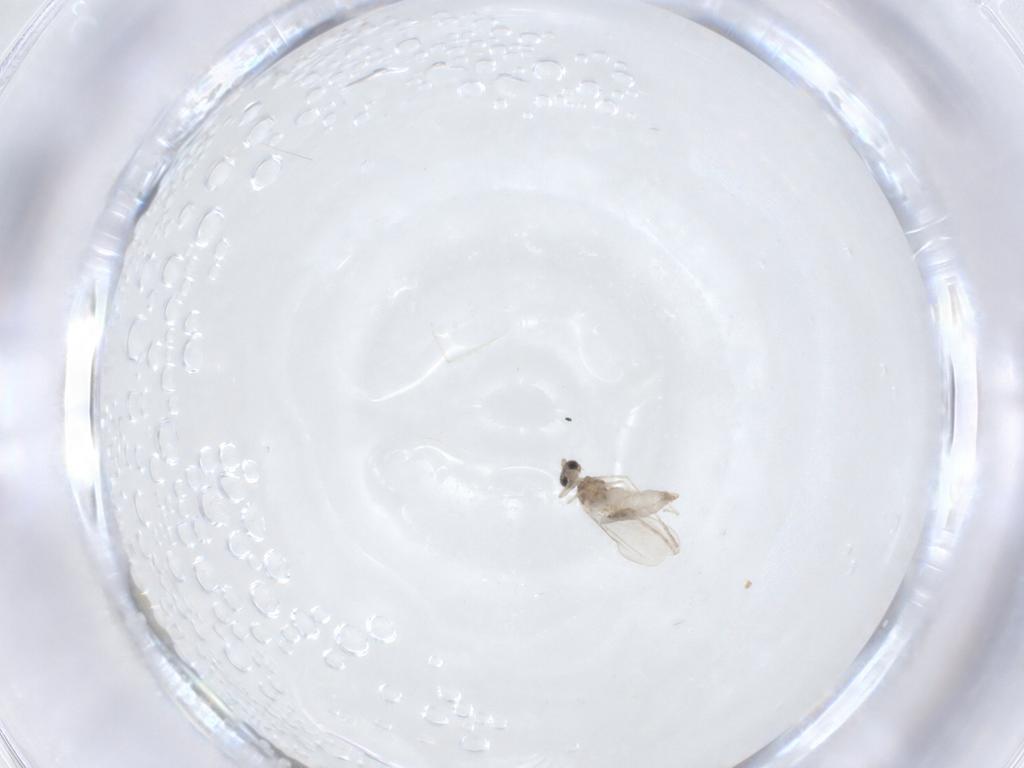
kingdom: Animalia
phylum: Arthropoda
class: Insecta
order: Diptera
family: Cecidomyiidae
